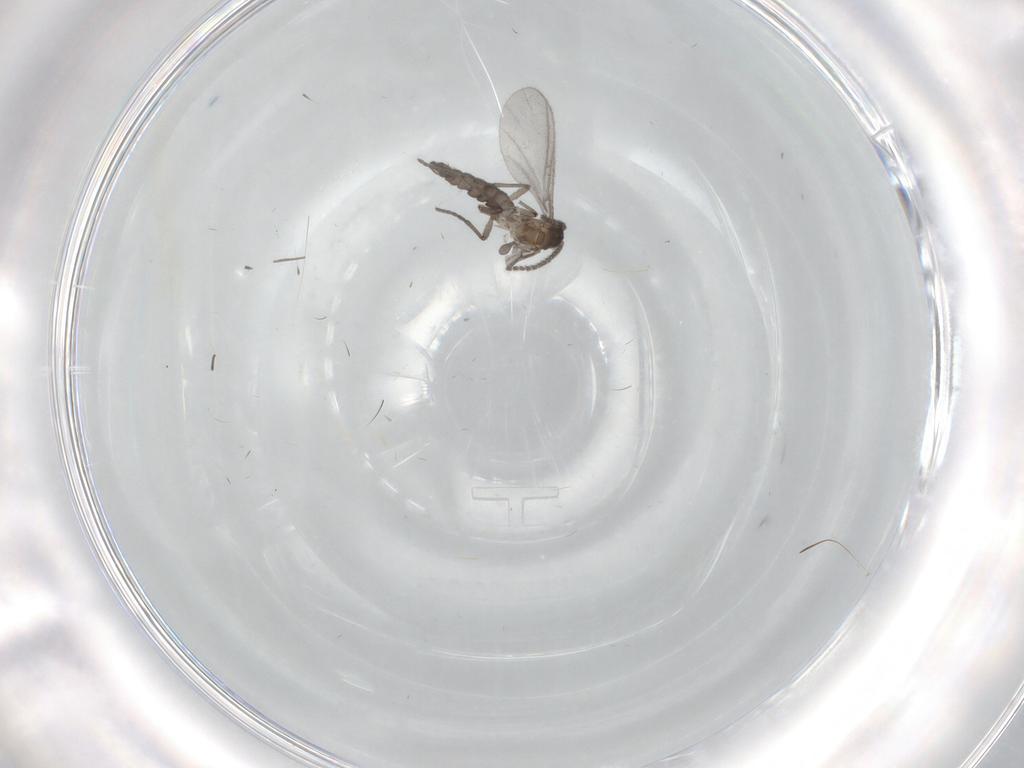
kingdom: Animalia
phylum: Arthropoda
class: Insecta
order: Diptera
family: Sciaridae
